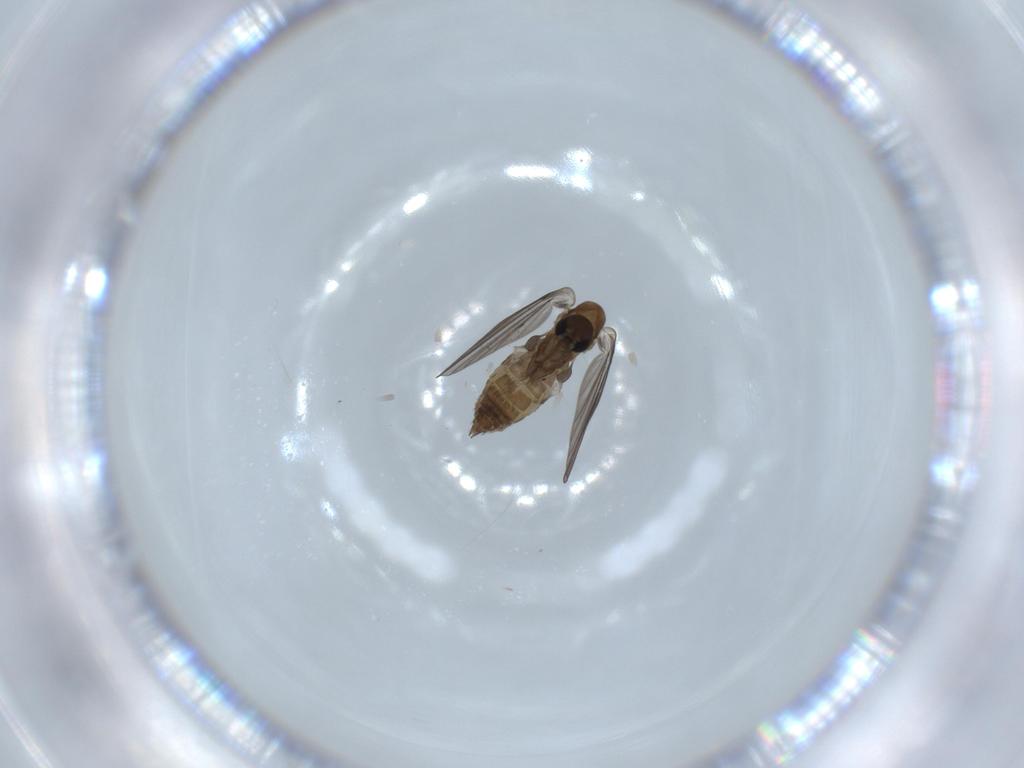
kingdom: Animalia
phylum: Arthropoda
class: Insecta
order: Diptera
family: Psychodidae
